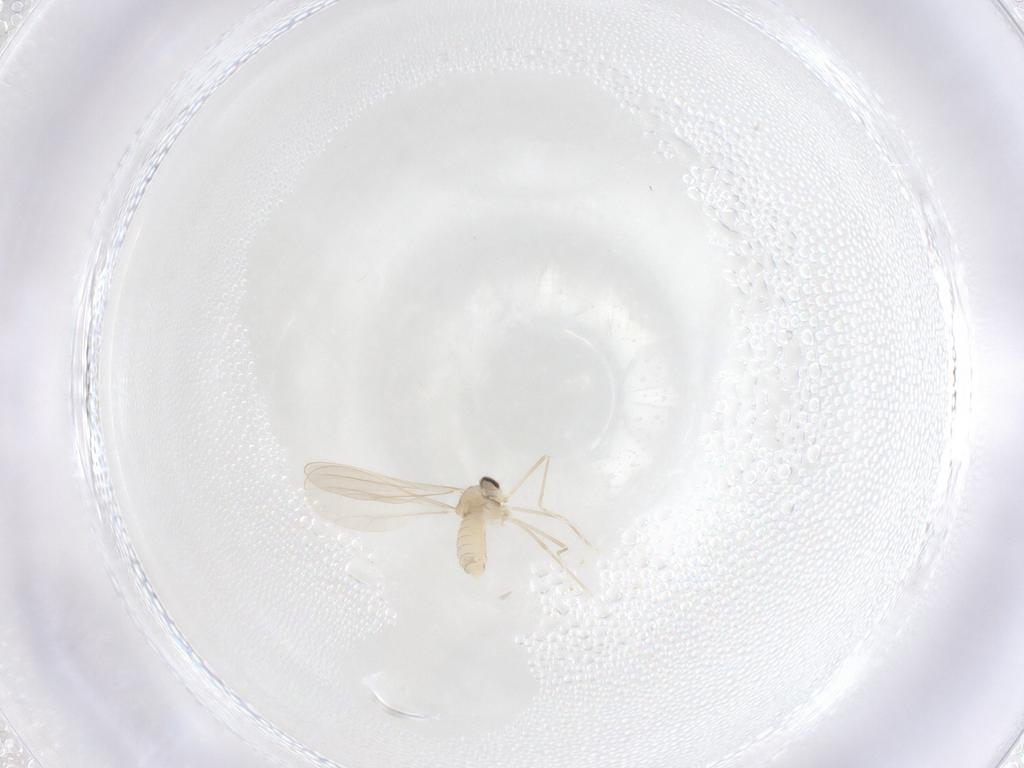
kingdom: Animalia
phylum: Arthropoda
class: Insecta
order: Diptera
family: Cecidomyiidae
